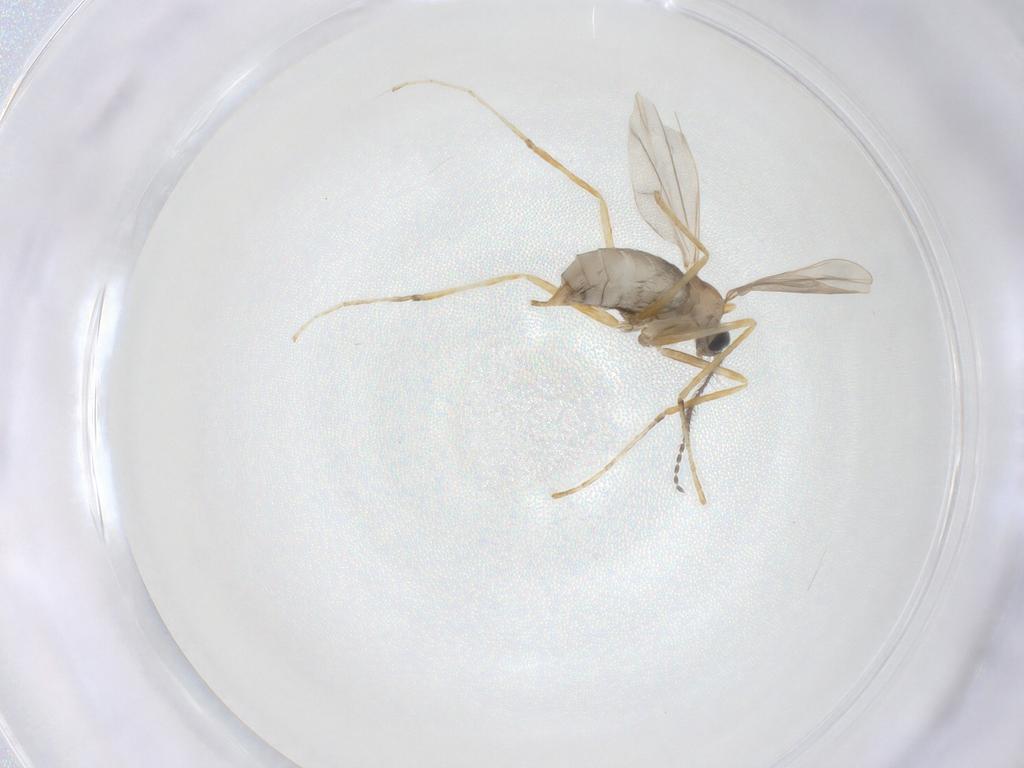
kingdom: Animalia
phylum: Arthropoda
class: Insecta
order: Diptera
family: Cecidomyiidae
